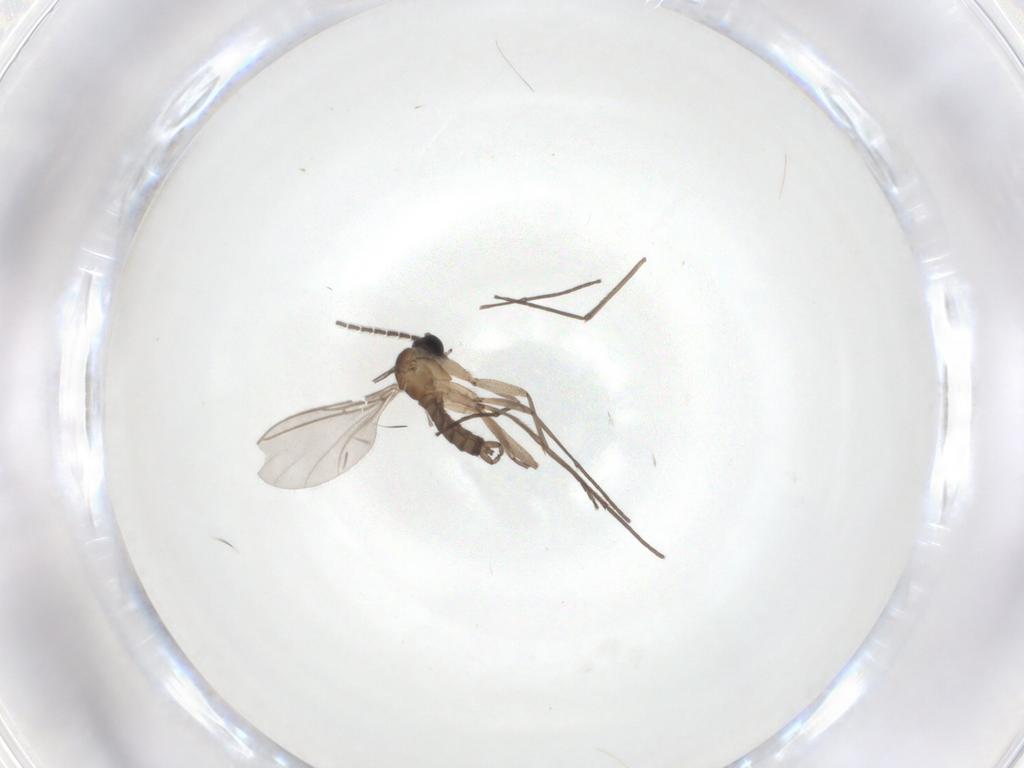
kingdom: Animalia
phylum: Arthropoda
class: Insecta
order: Diptera
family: Sciaridae
